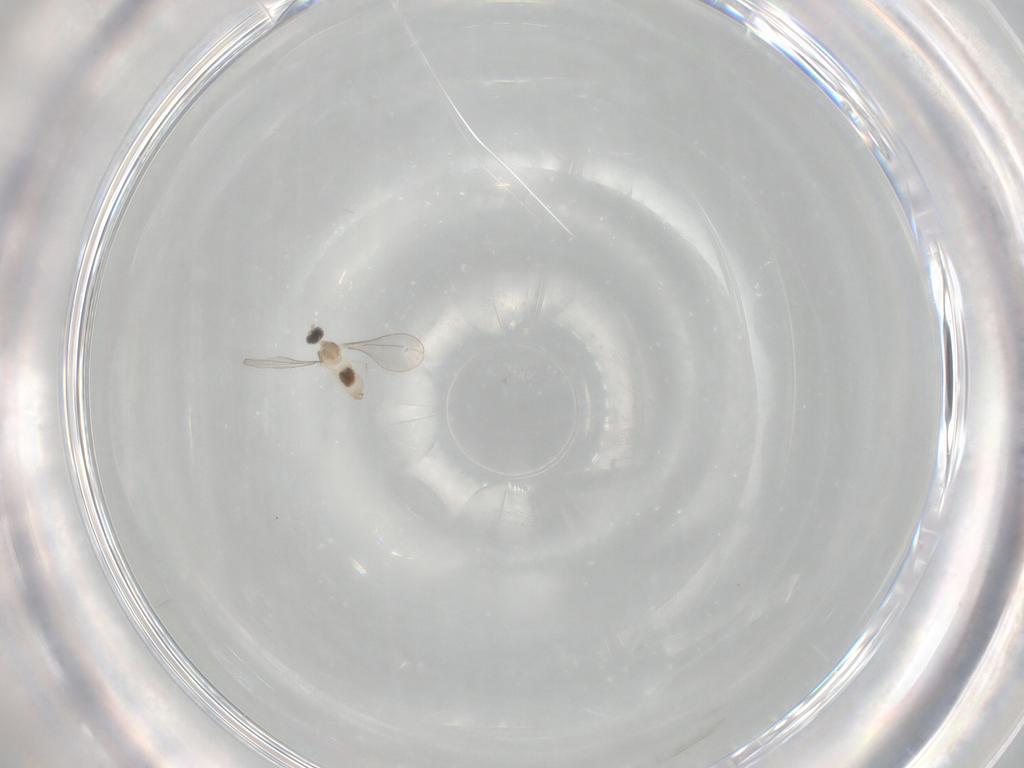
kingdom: Animalia
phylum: Arthropoda
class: Insecta
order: Diptera
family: Cecidomyiidae
